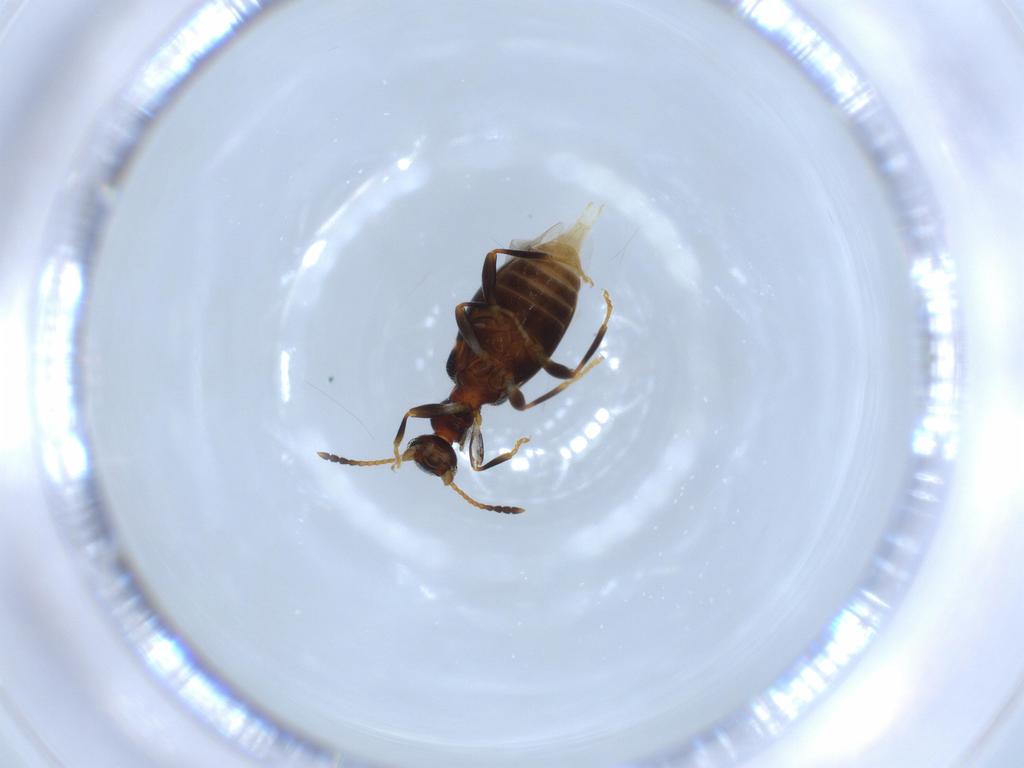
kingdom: Animalia
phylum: Arthropoda
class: Insecta
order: Coleoptera
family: Anthicidae
